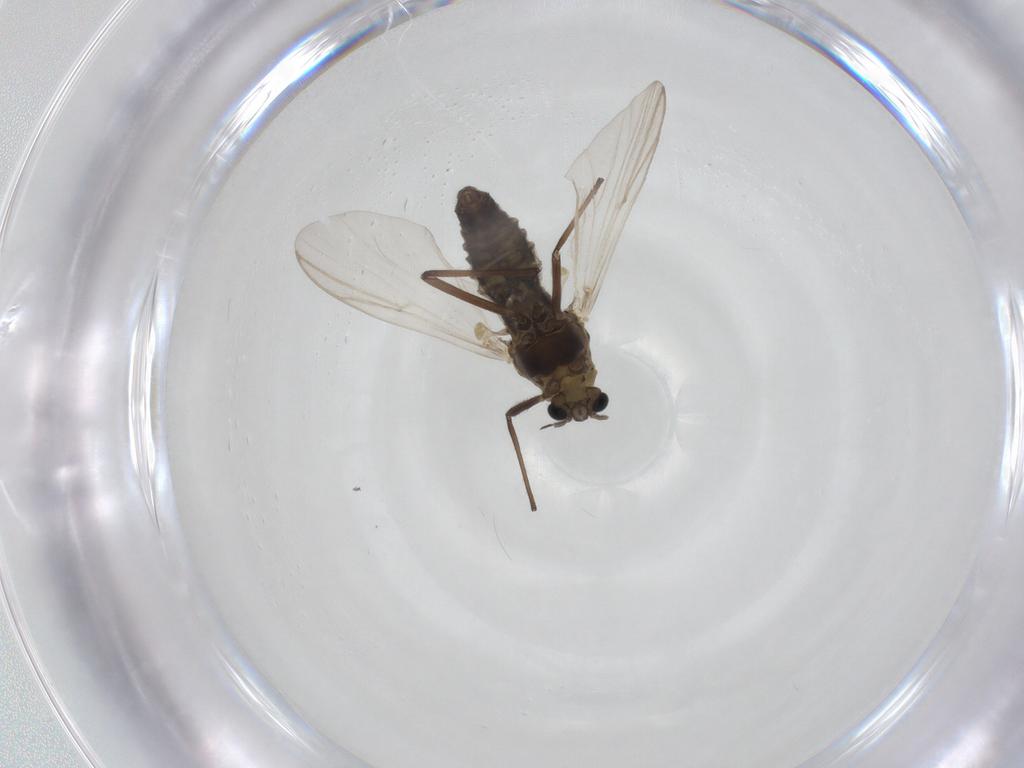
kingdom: Animalia
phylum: Arthropoda
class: Insecta
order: Diptera
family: Chironomidae
